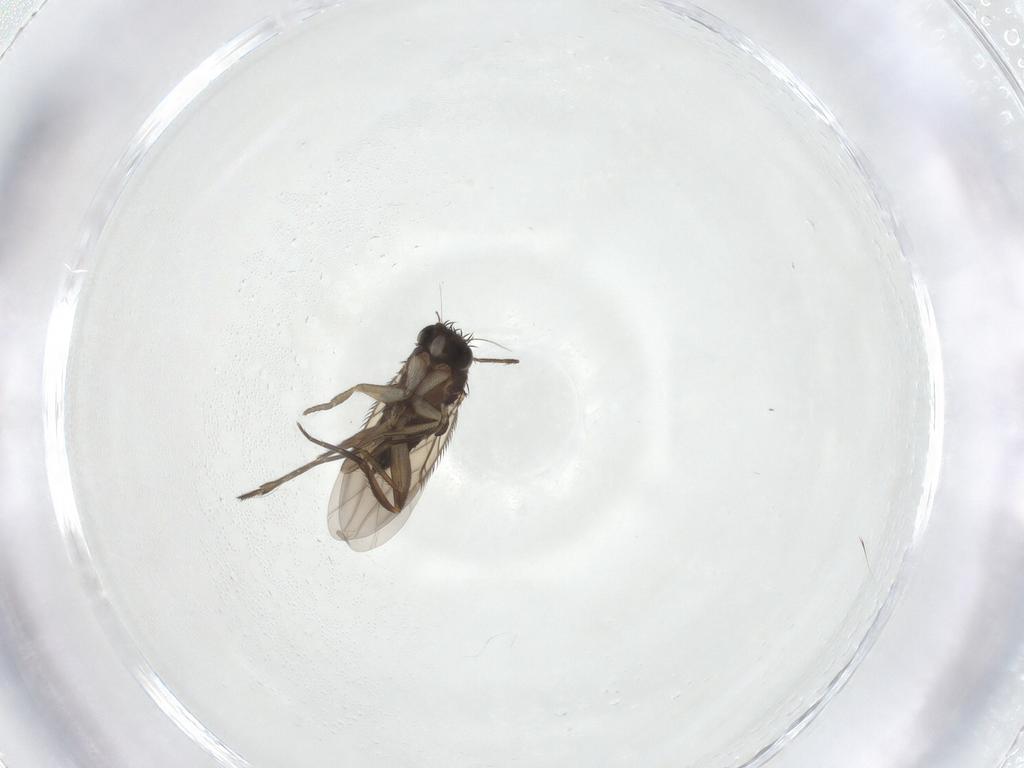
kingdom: Animalia
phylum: Arthropoda
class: Insecta
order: Diptera
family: Phoridae
